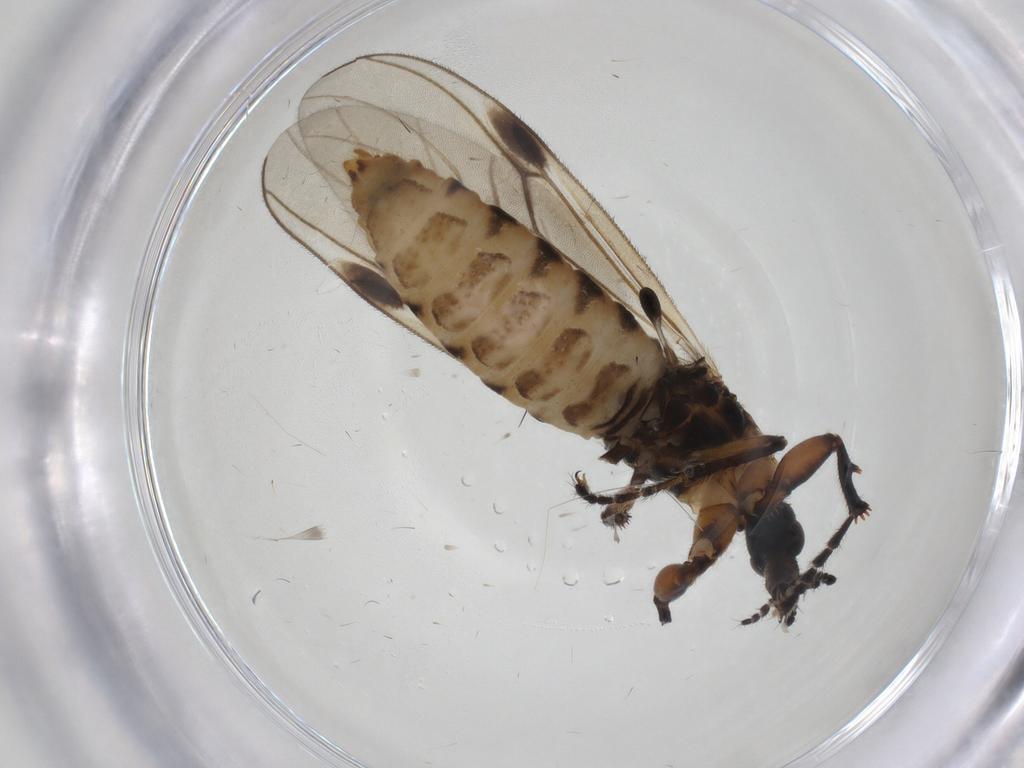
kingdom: Animalia
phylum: Arthropoda
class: Insecta
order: Diptera
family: Bibionidae
